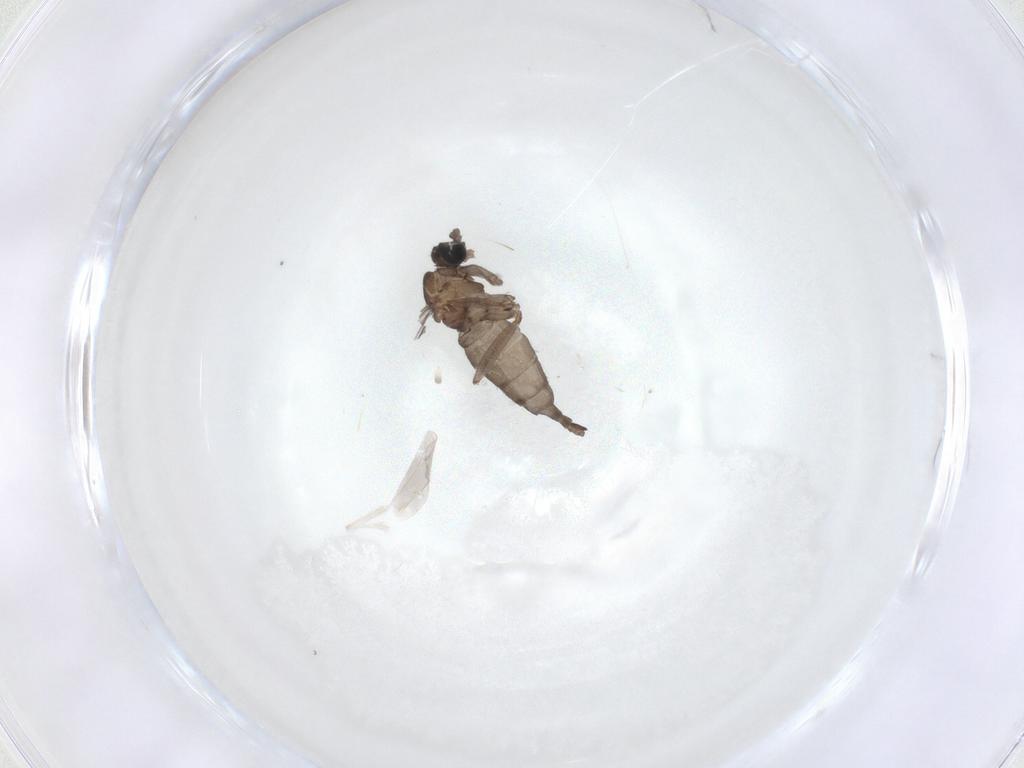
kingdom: Animalia
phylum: Arthropoda
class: Insecta
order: Diptera
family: Sciaridae
